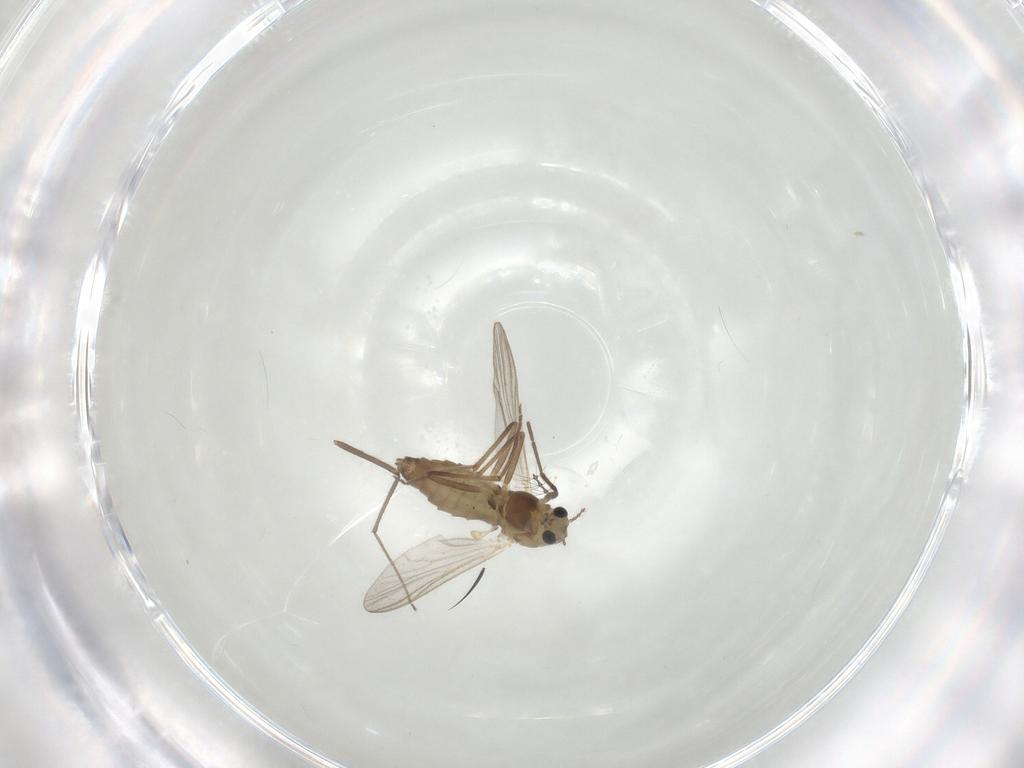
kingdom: Animalia
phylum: Arthropoda
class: Insecta
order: Diptera
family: Chironomidae
